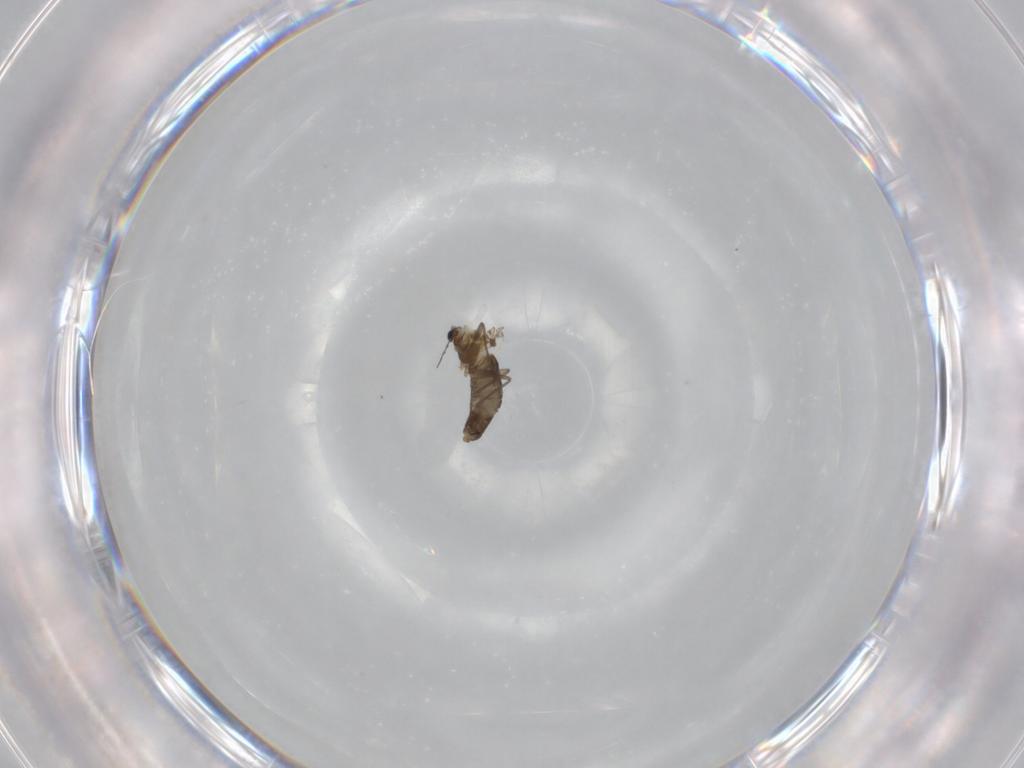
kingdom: Animalia
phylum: Arthropoda
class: Insecta
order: Diptera
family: Chironomidae
